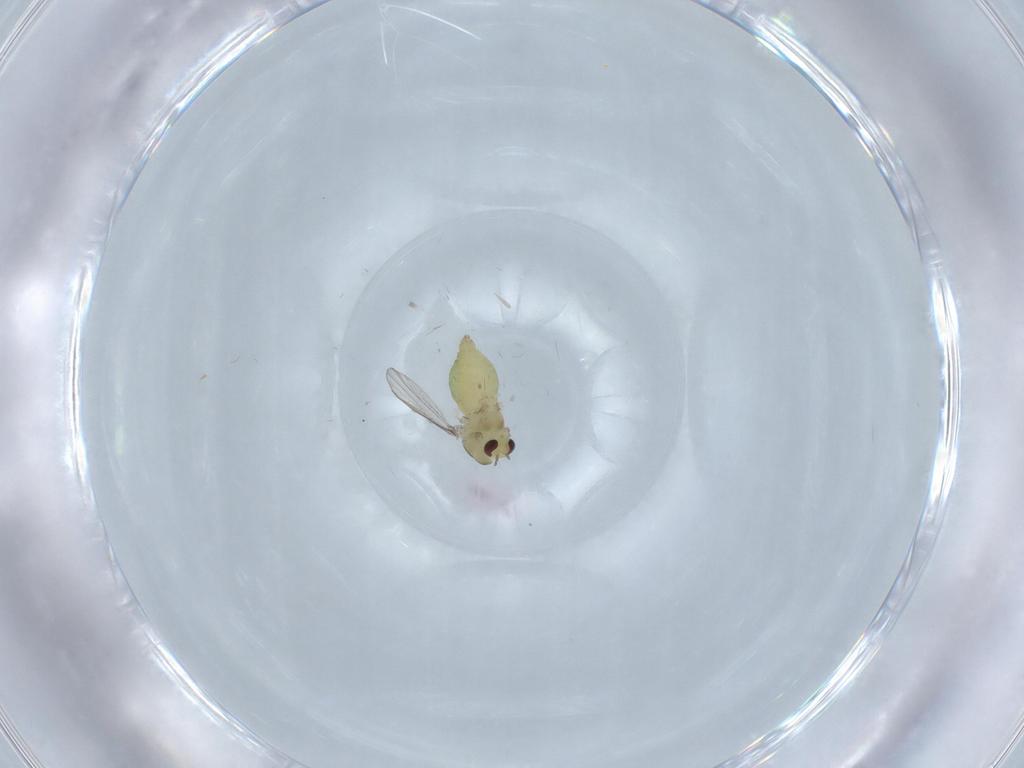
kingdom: Animalia
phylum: Arthropoda
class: Insecta
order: Diptera
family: Chironomidae
